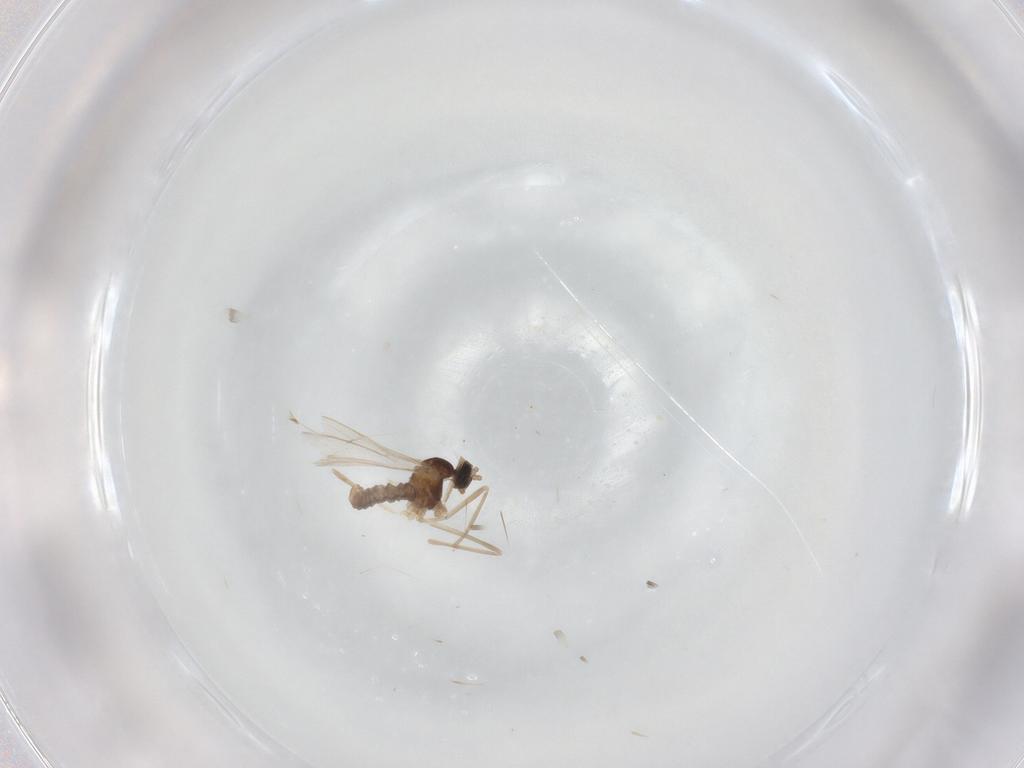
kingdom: Animalia
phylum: Arthropoda
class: Insecta
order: Diptera
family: Cecidomyiidae
